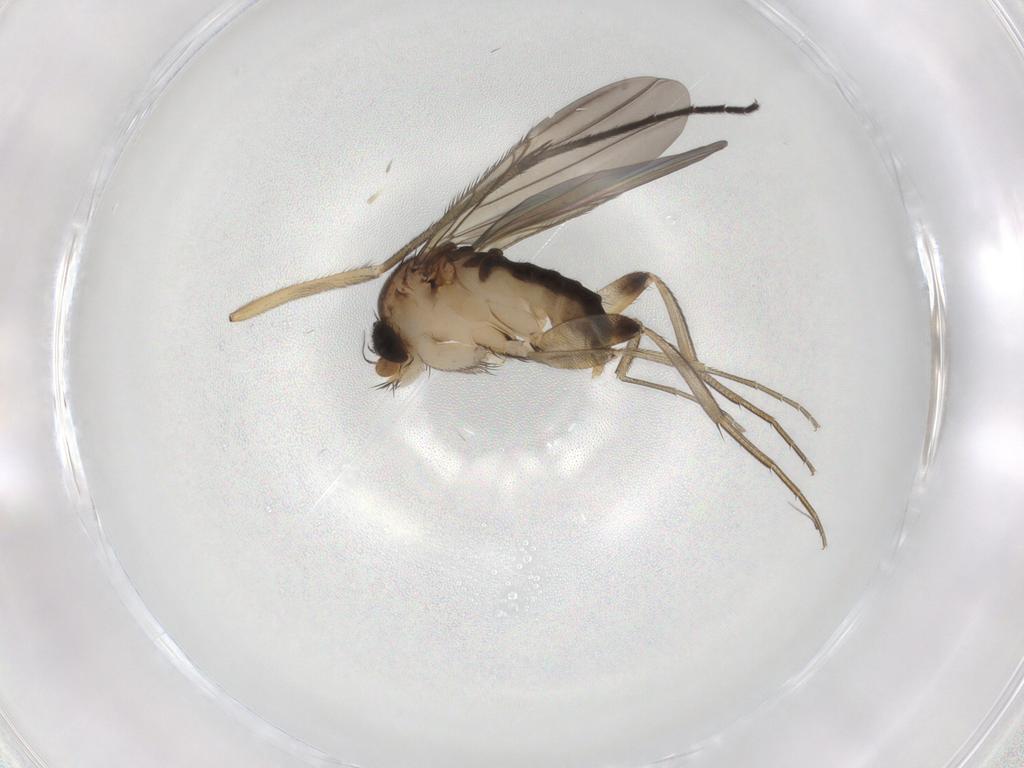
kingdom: Animalia
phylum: Arthropoda
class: Insecta
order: Diptera
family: Phoridae
